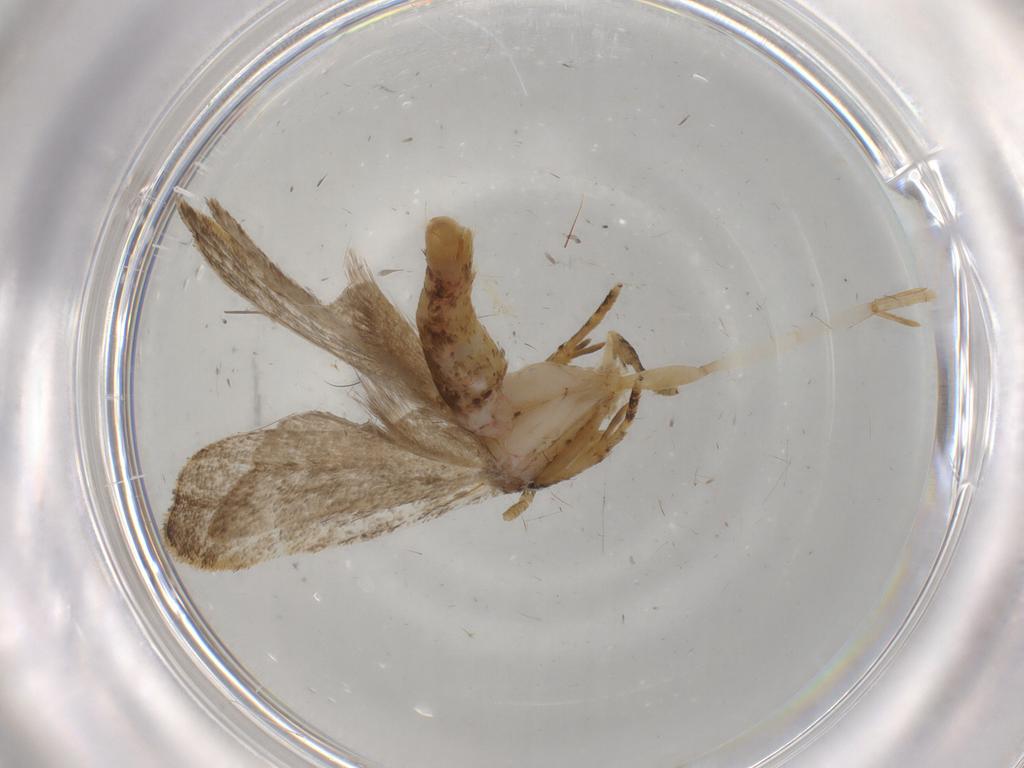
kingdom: Animalia
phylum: Arthropoda
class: Insecta
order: Lepidoptera
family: Autostichidae
